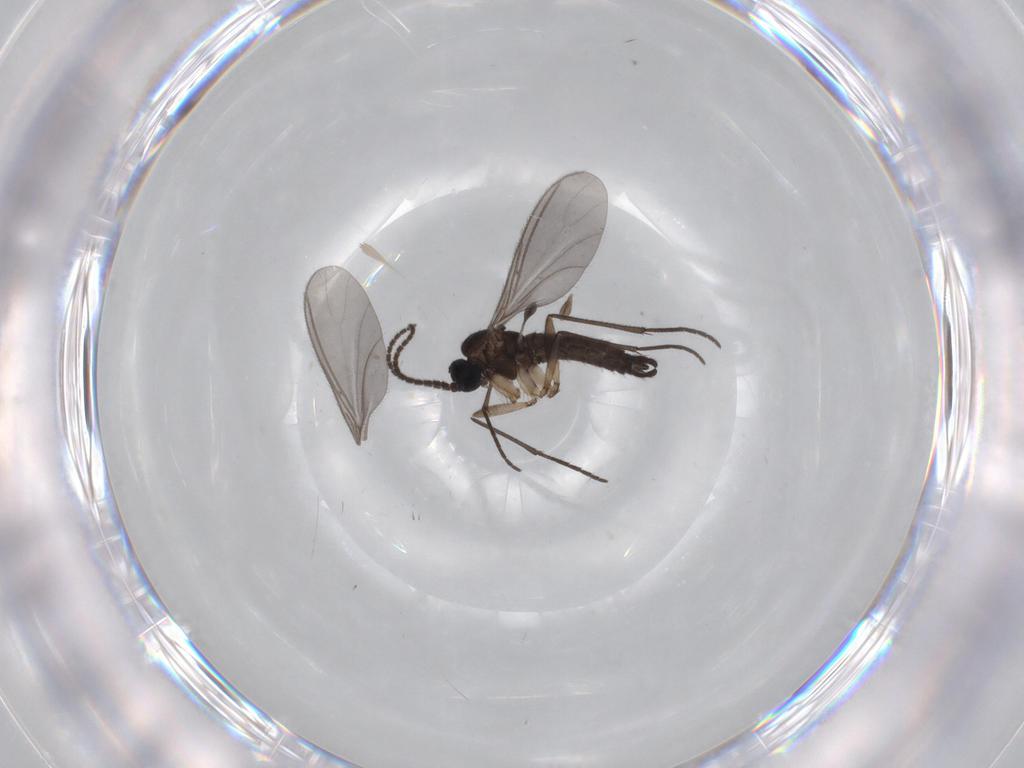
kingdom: Animalia
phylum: Arthropoda
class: Insecta
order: Diptera
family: Sciaridae
